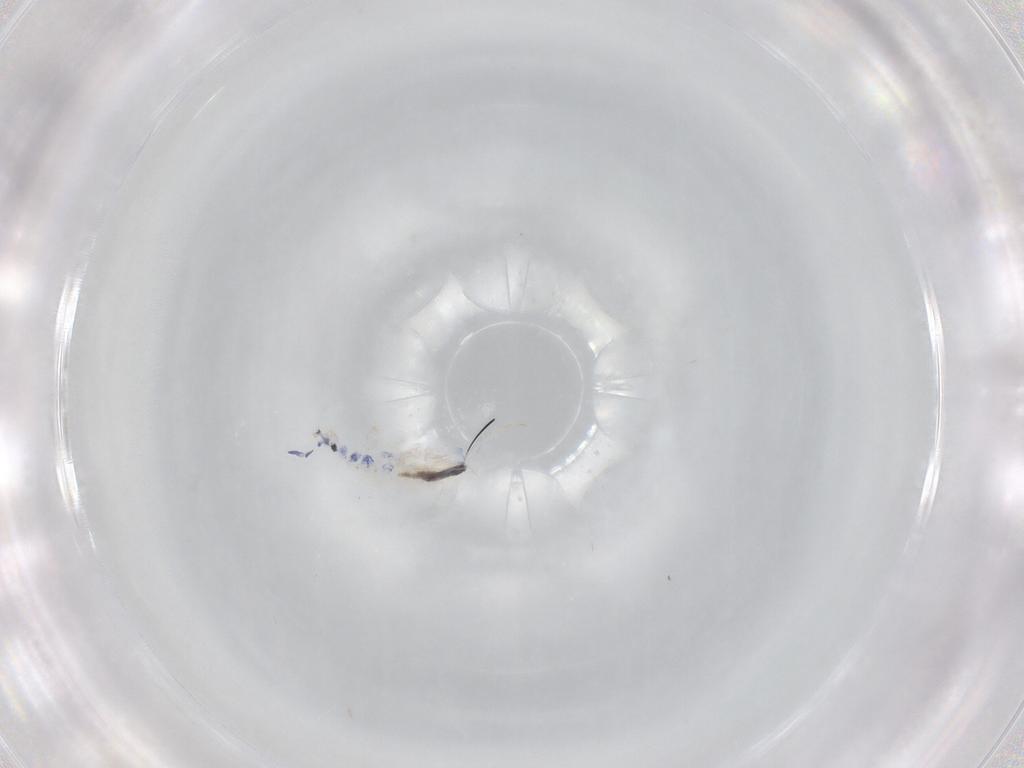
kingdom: Animalia
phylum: Arthropoda
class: Collembola
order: Entomobryomorpha
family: Entomobryidae
